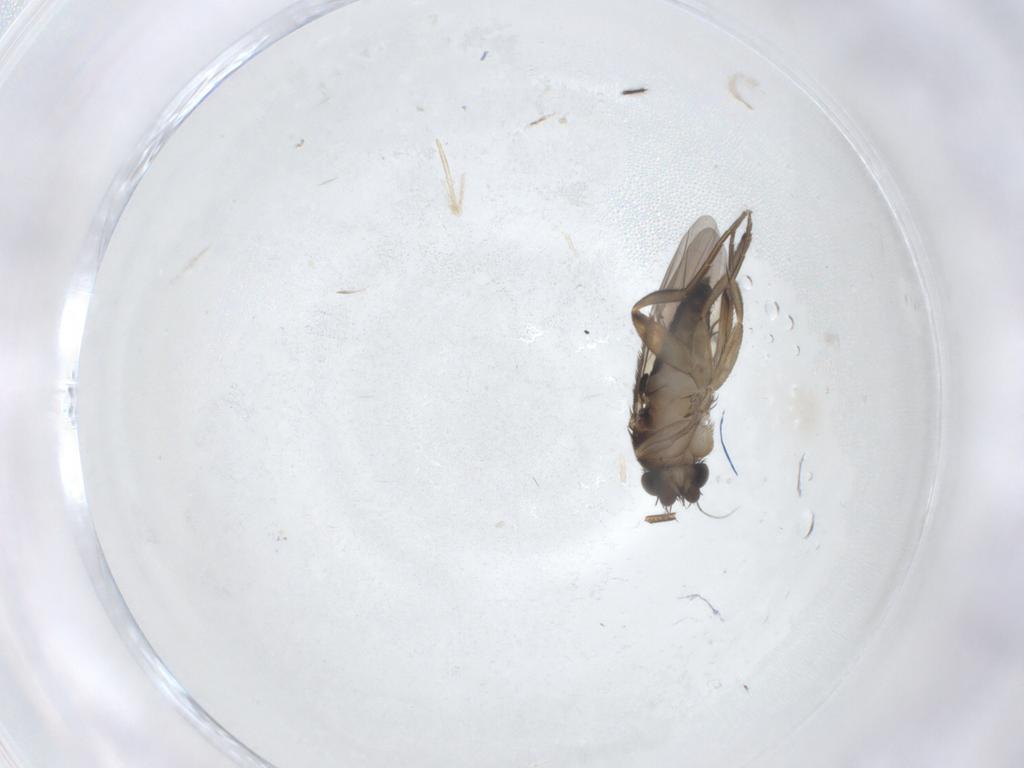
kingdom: Animalia
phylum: Arthropoda
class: Insecta
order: Diptera
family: Phoridae
